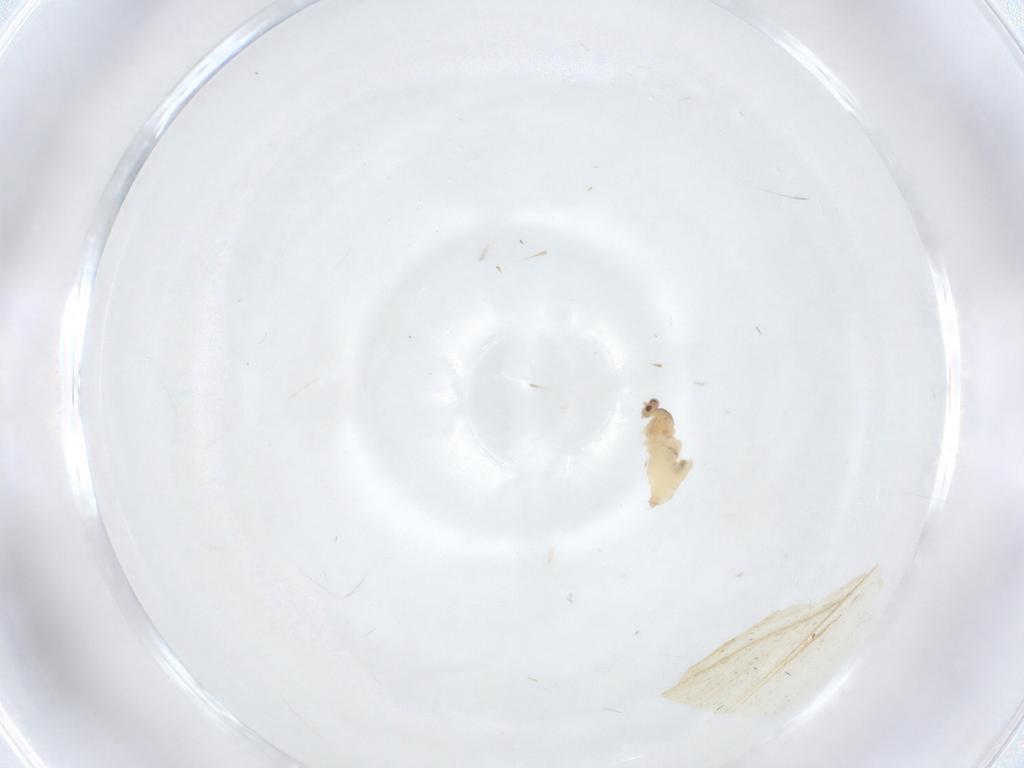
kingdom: Animalia
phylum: Arthropoda
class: Insecta
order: Diptera
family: Cecidomyiidae
